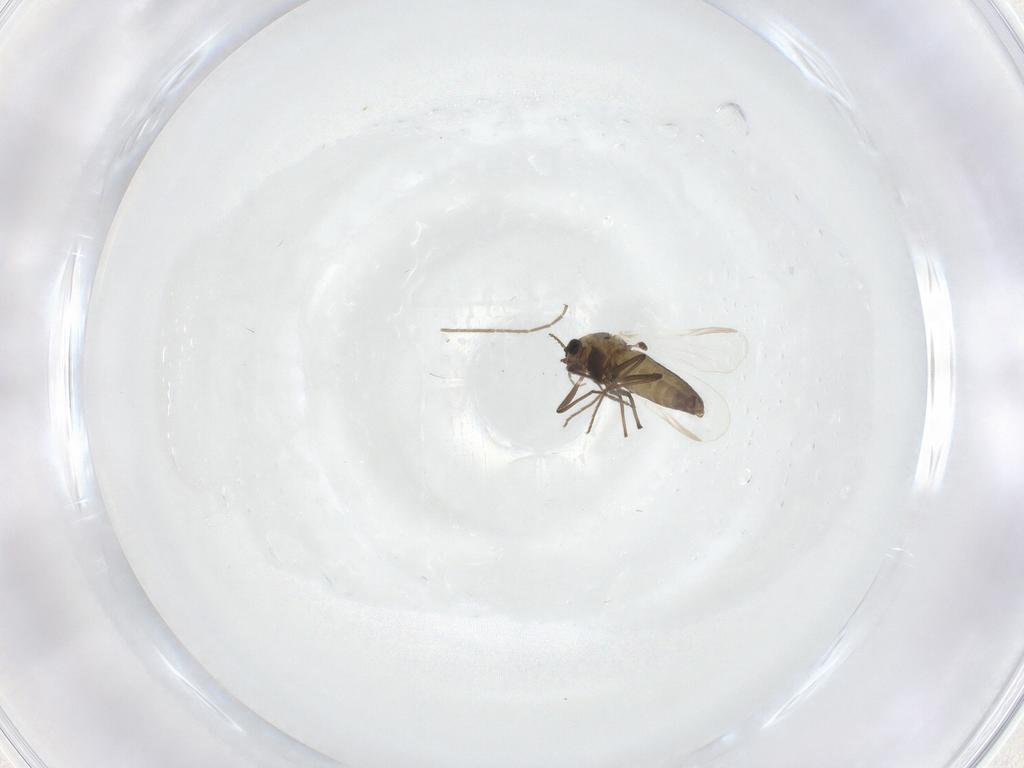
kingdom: Animalia
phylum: Arthropoda
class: Insecta
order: Diptera
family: Chironomidae
